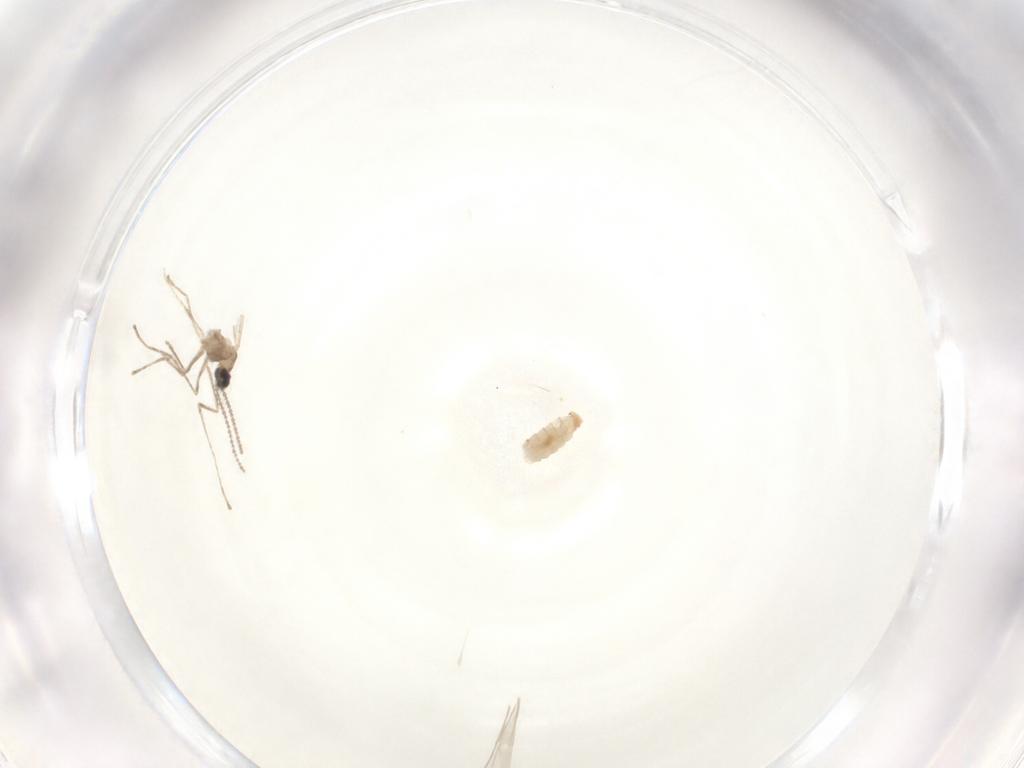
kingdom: Animalia
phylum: Arthropoda
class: Insecta
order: Diptera
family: Cecidomyiidae
